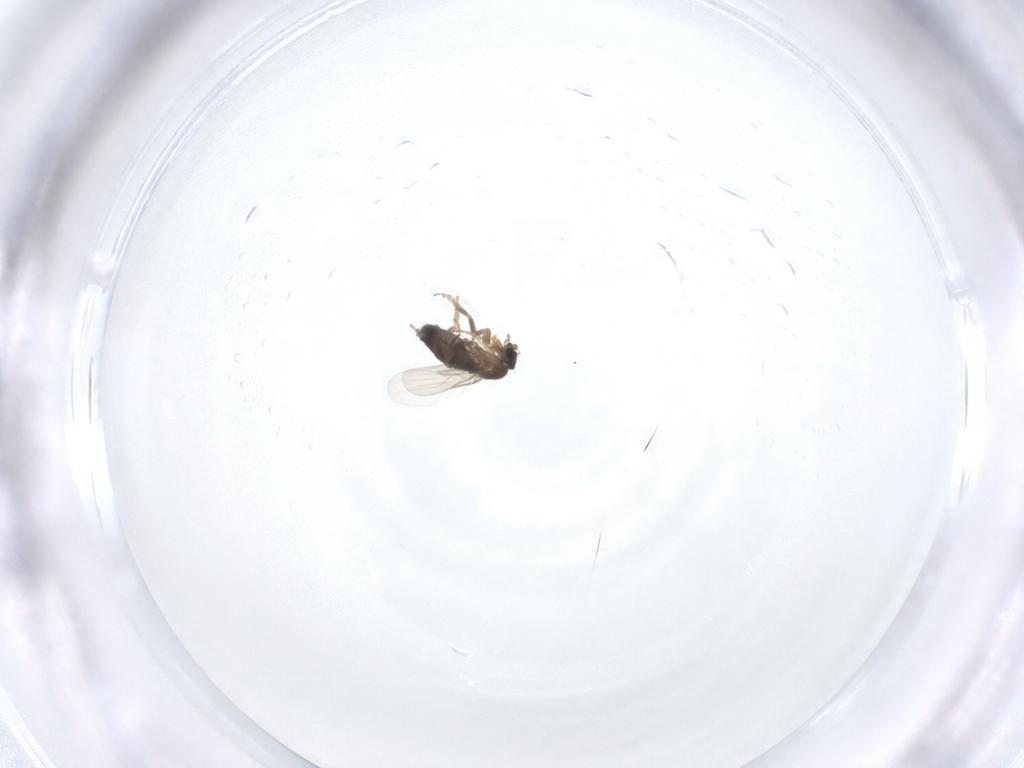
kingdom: Animalia
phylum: Arthropoda
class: Insecta
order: Diptera
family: Phoridae
